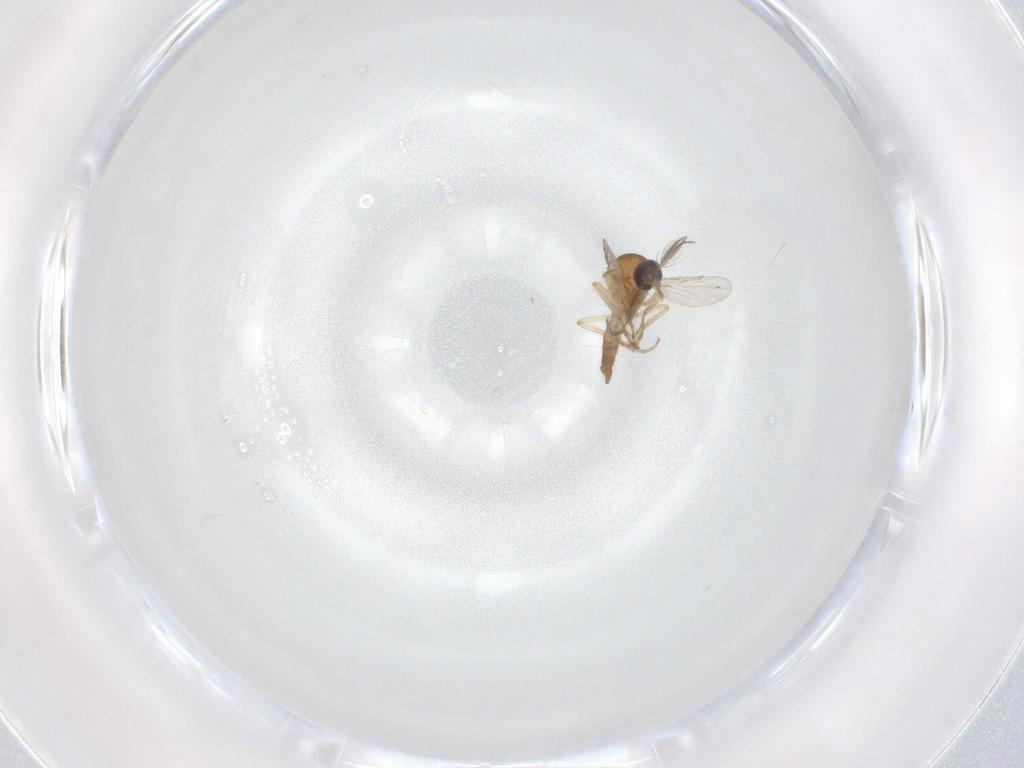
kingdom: Animalia
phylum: Arthropoda
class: Insecta
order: Diptera
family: Ceratopogonidae
